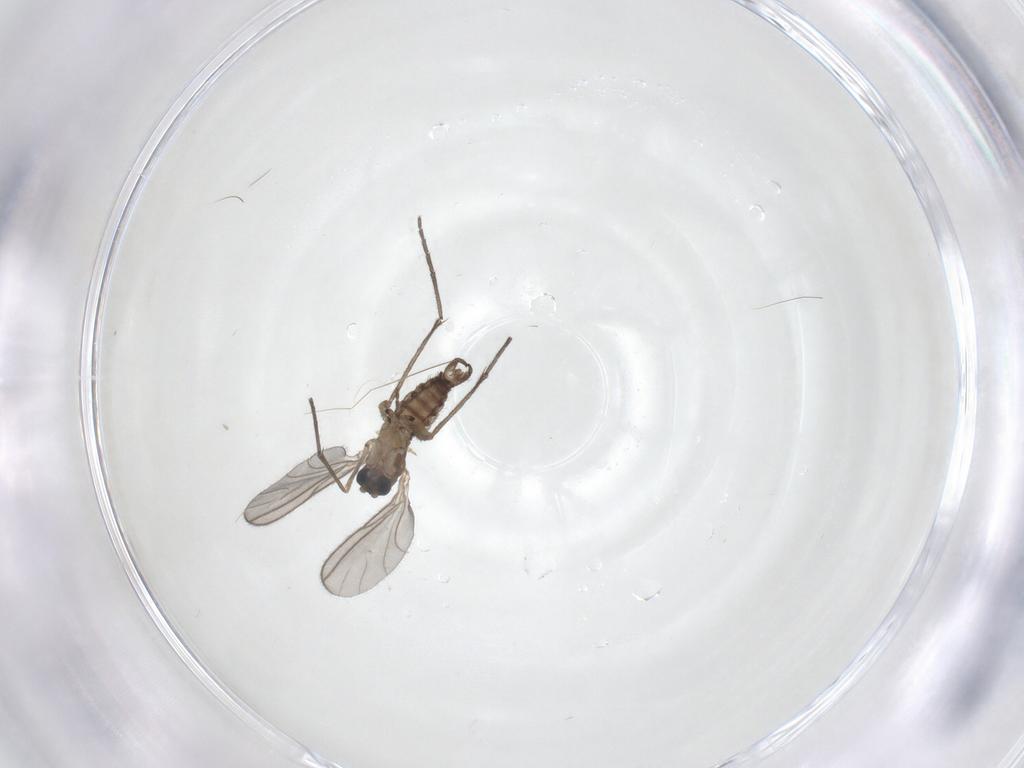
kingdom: Animalia
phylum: Arthropoda
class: Insecta
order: Diptera
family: Sciaridae
